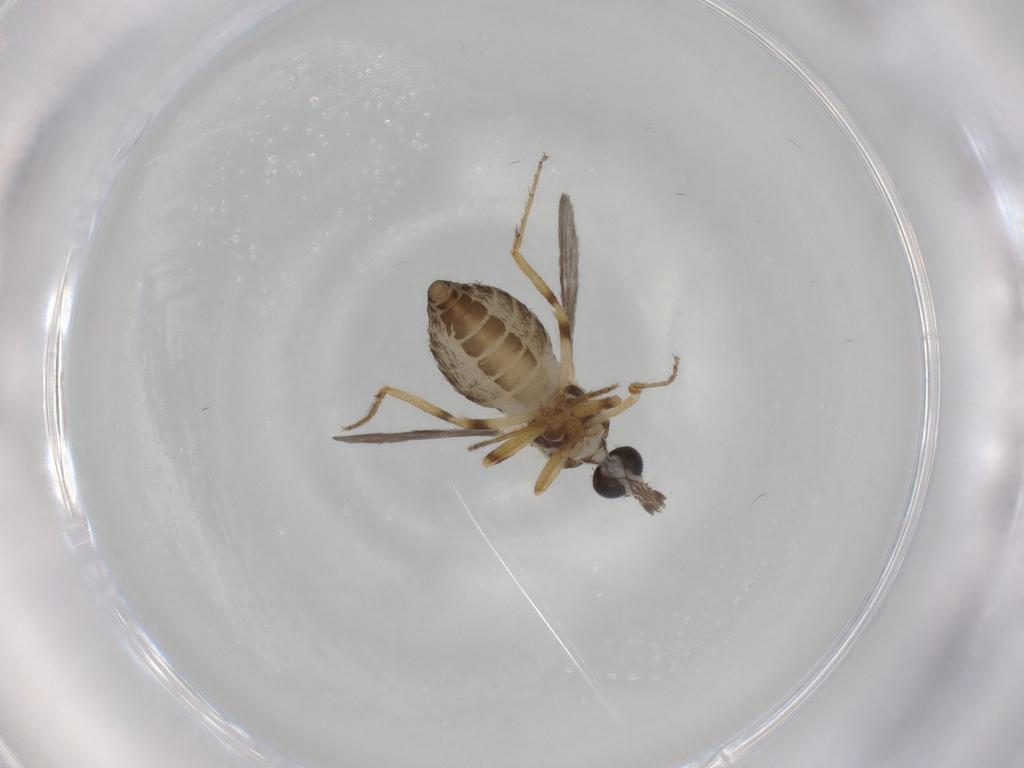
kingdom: Animalia
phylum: Arthropoda
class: Insecta
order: Diptera
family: Ceratopogonidae
